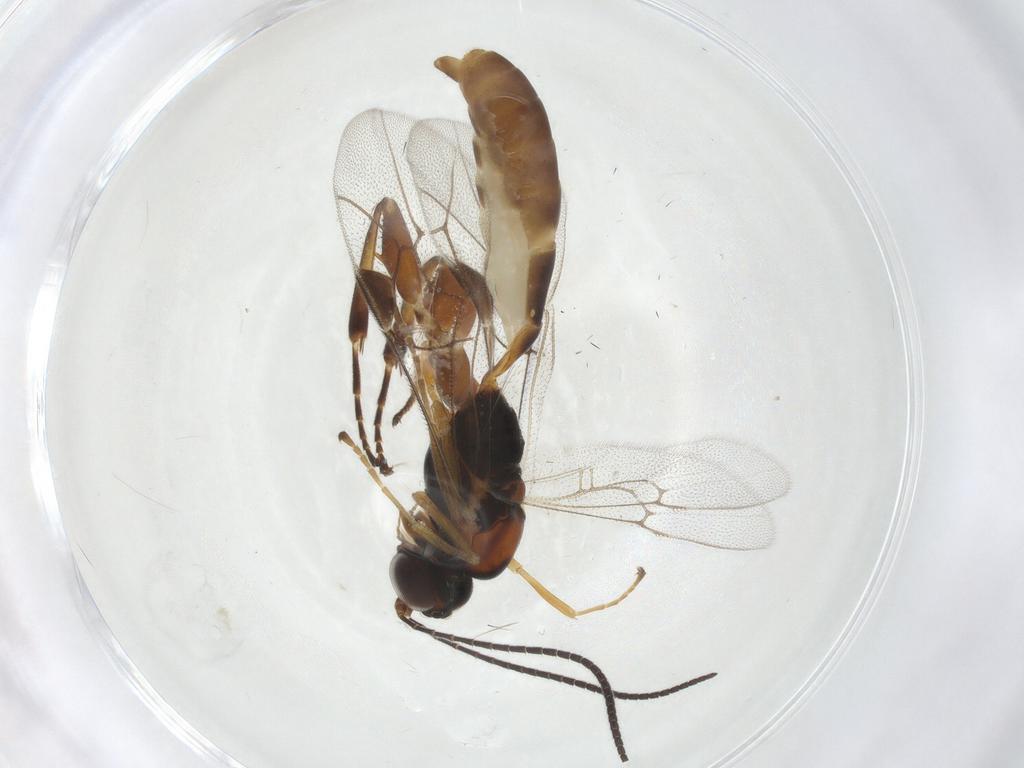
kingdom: Animalia
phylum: Arthropoda
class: Insecta
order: Hymenoptera
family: Ichneumonidae
